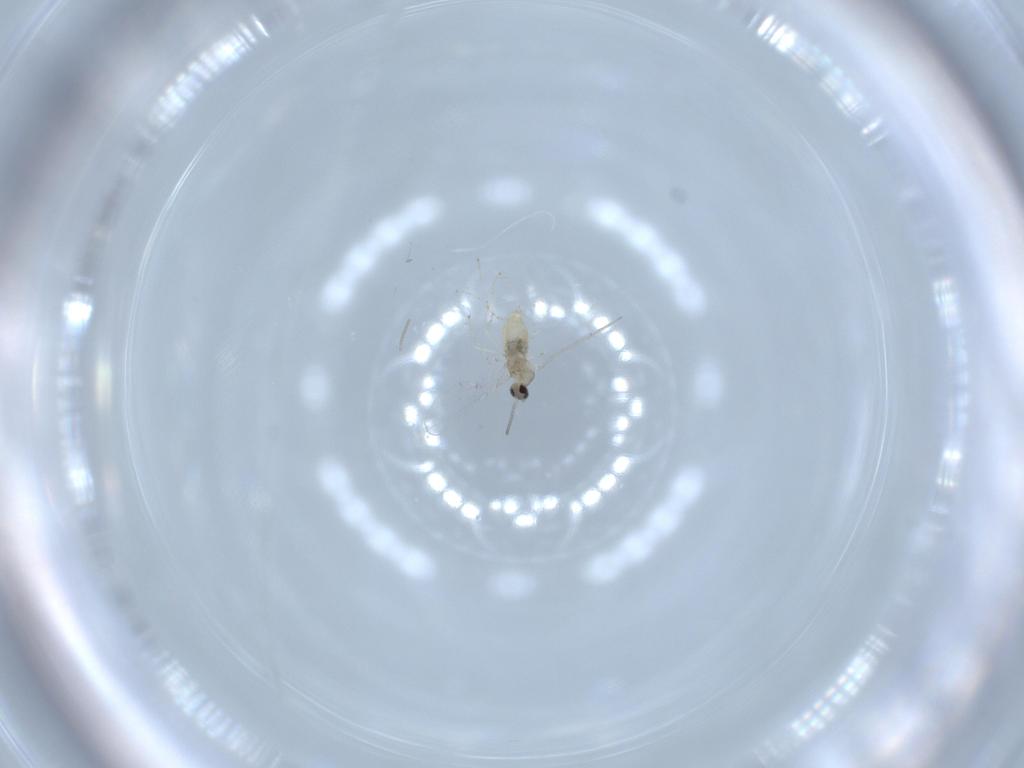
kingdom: Animalia
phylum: Arthropoda
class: Insecta
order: Diptera
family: Cecidomyiidae
